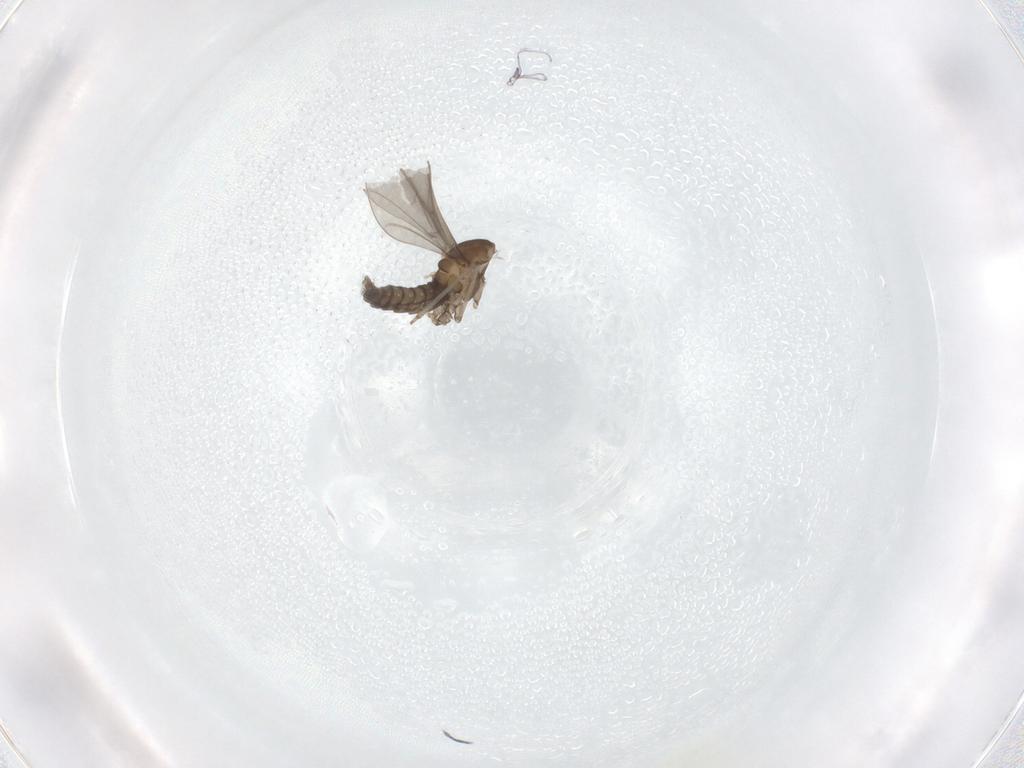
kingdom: Animalia
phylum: Arthropoda
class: Insecta
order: Diptera
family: Cecidomyiidae
